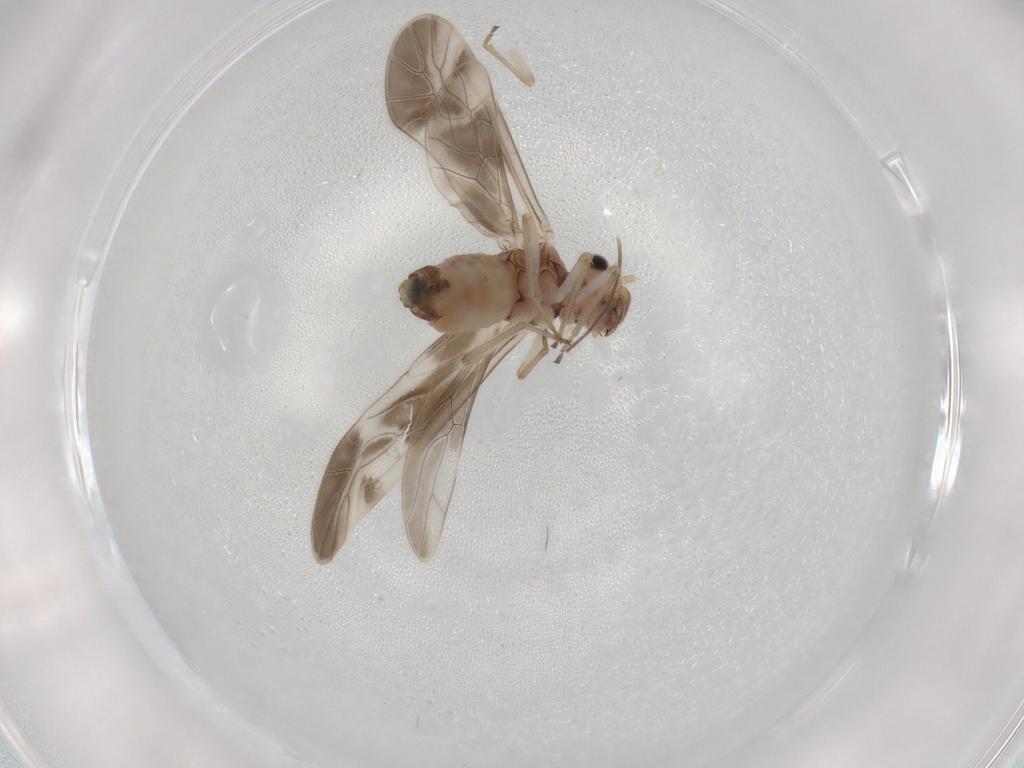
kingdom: Animalia
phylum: Arthropoda
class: Insecta
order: Psocodea
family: Caeciliusidae
